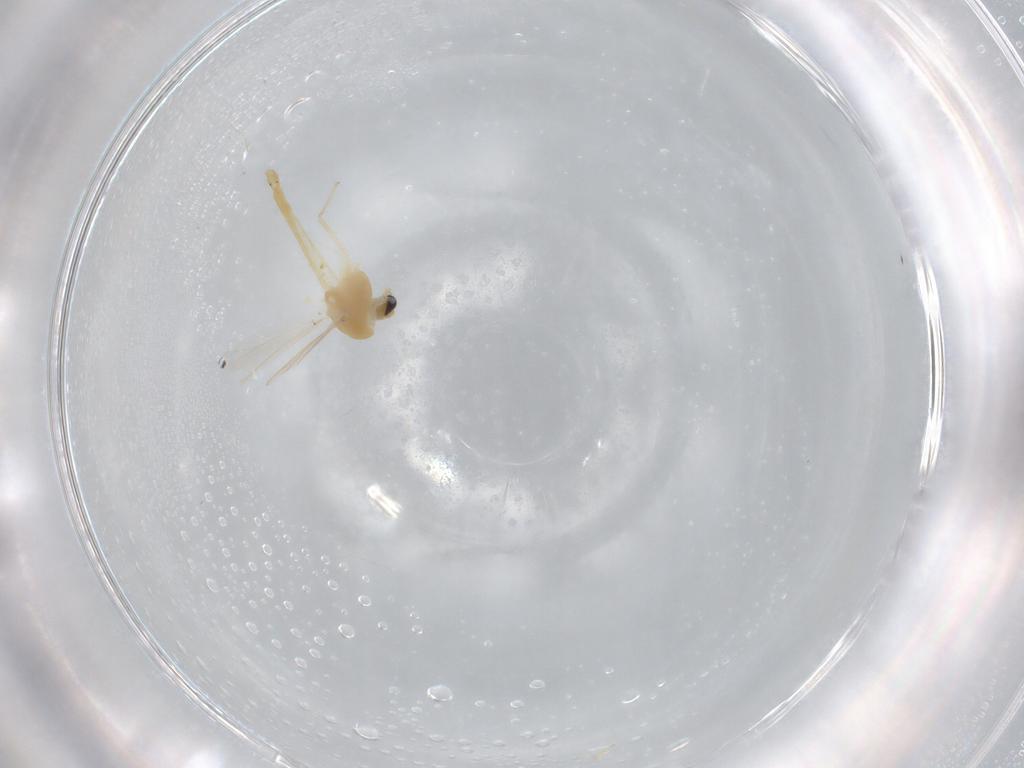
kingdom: Animalia
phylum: Arthropoda
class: Insecta
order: Diptera
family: Chironomidae
